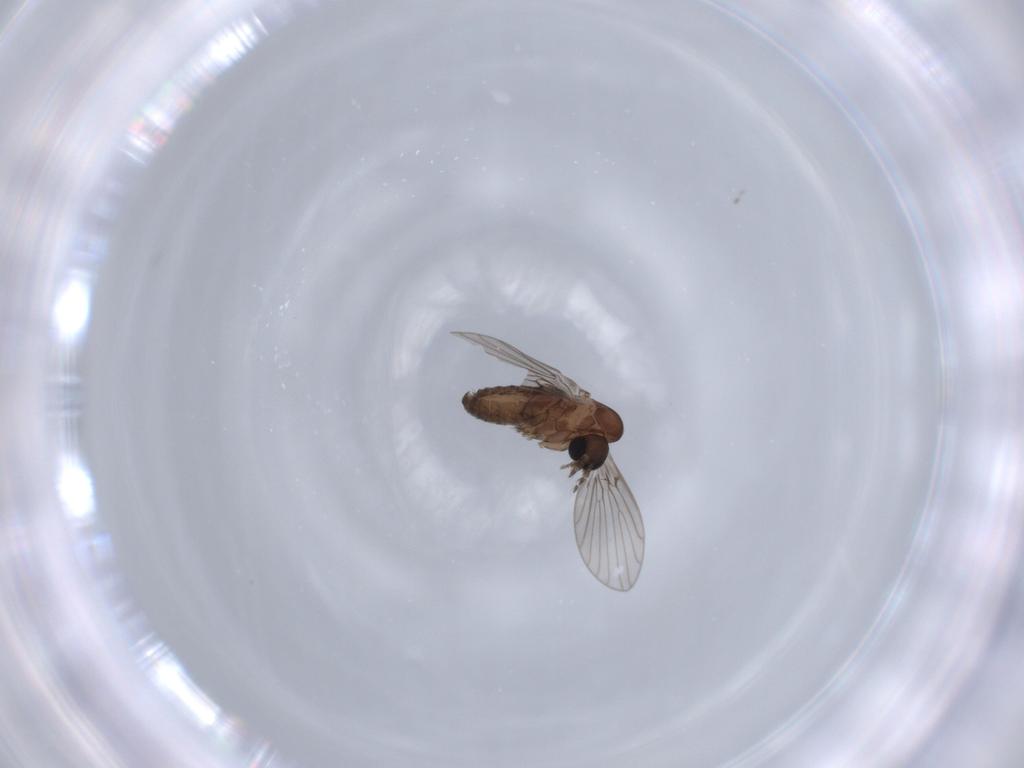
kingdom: Animalia
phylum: Arthropoda
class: Insecta
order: Diptera
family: Psychodidae
